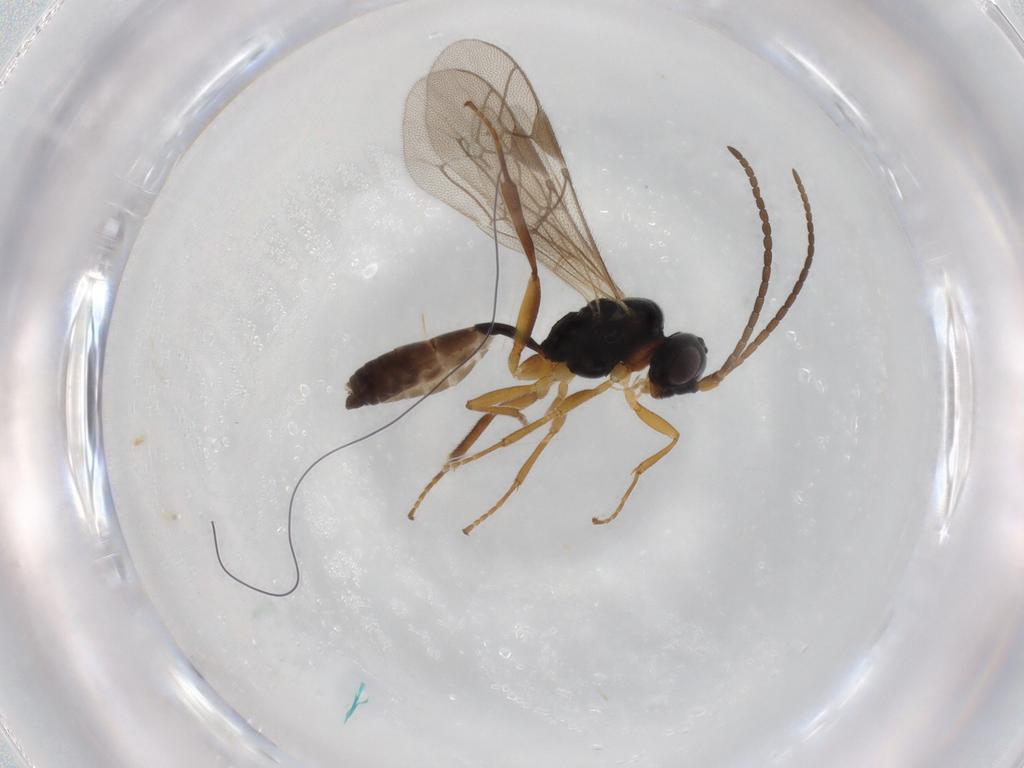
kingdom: Animalia
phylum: Arthropoda
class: Insecta
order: Hymenoptera
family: Ichneumonidae
